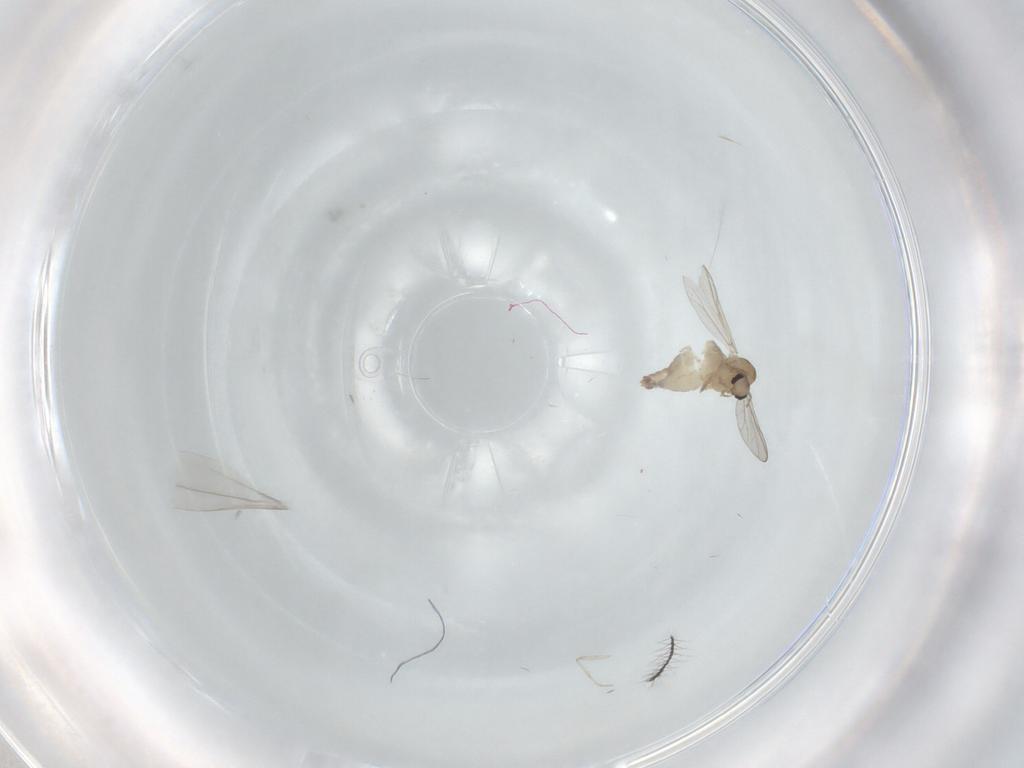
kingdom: Animalia
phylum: Arthropoda
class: Insecta
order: Diptera
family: Cecidomyiidae
